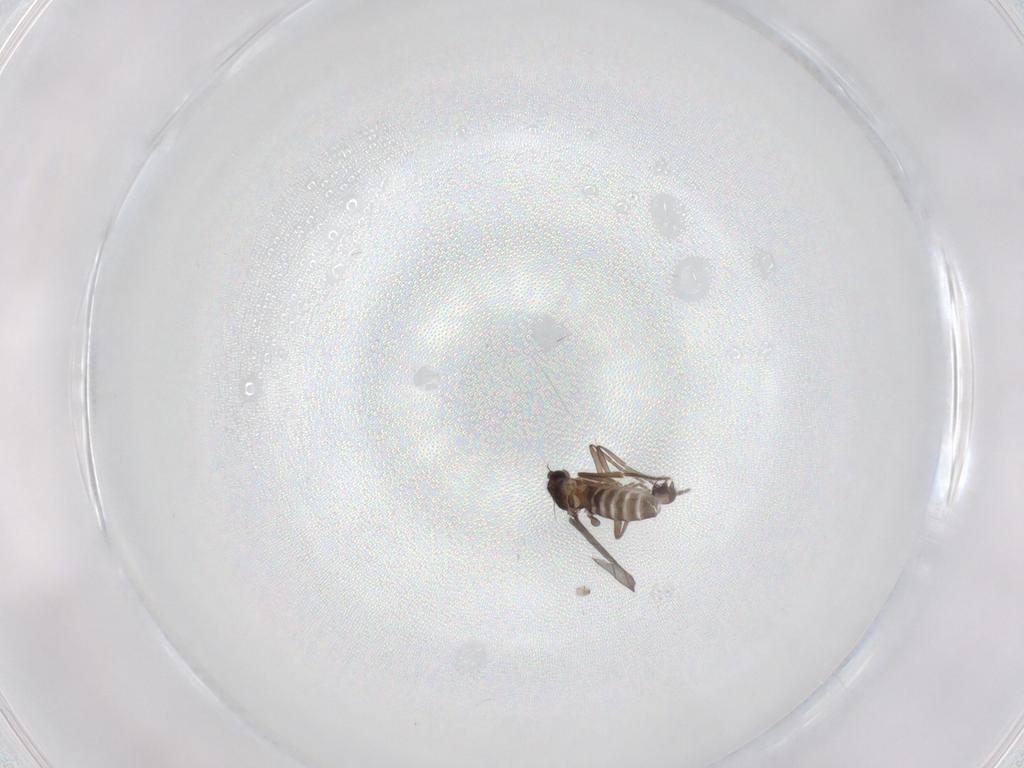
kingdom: Animalia
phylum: Arthropoda
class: Insecta
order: Diptera
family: Phoridae
